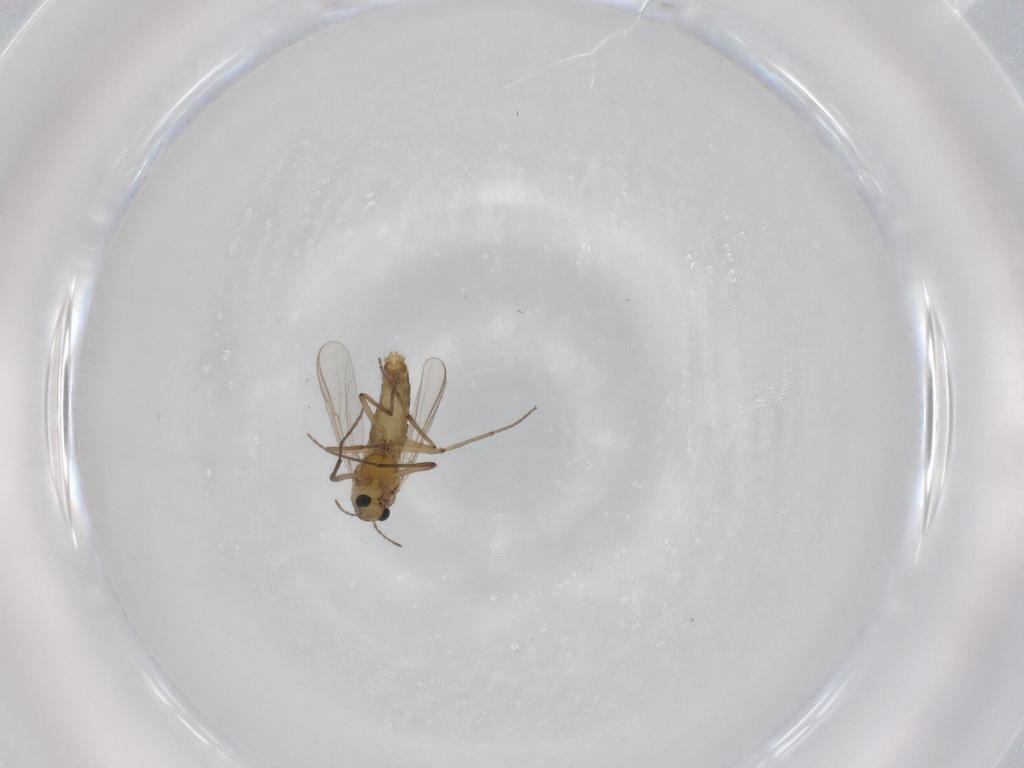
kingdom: Animalia
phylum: Arthropoda
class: Insecta
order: Diptera
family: Chironomidae
